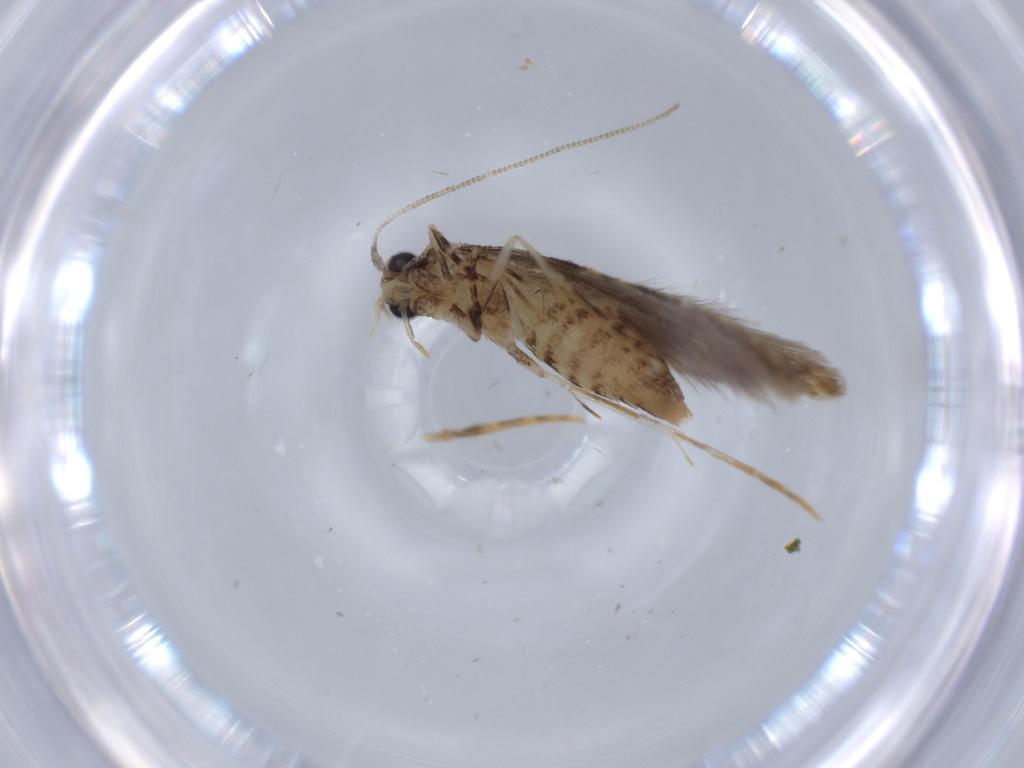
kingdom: Animalia
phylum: Arthropoda
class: Insecta
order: Lepidoptera
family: Tineidae
